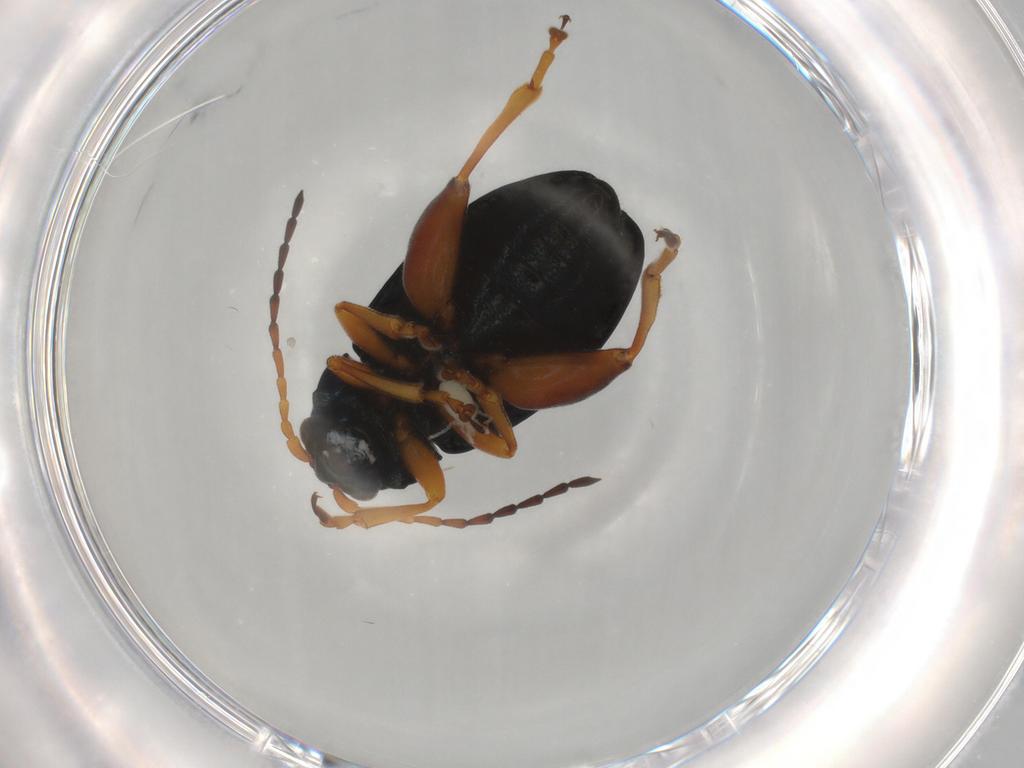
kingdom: Animalia
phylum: Arthropoda
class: Insecta
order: Coleoptera
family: Chrysomelidae
